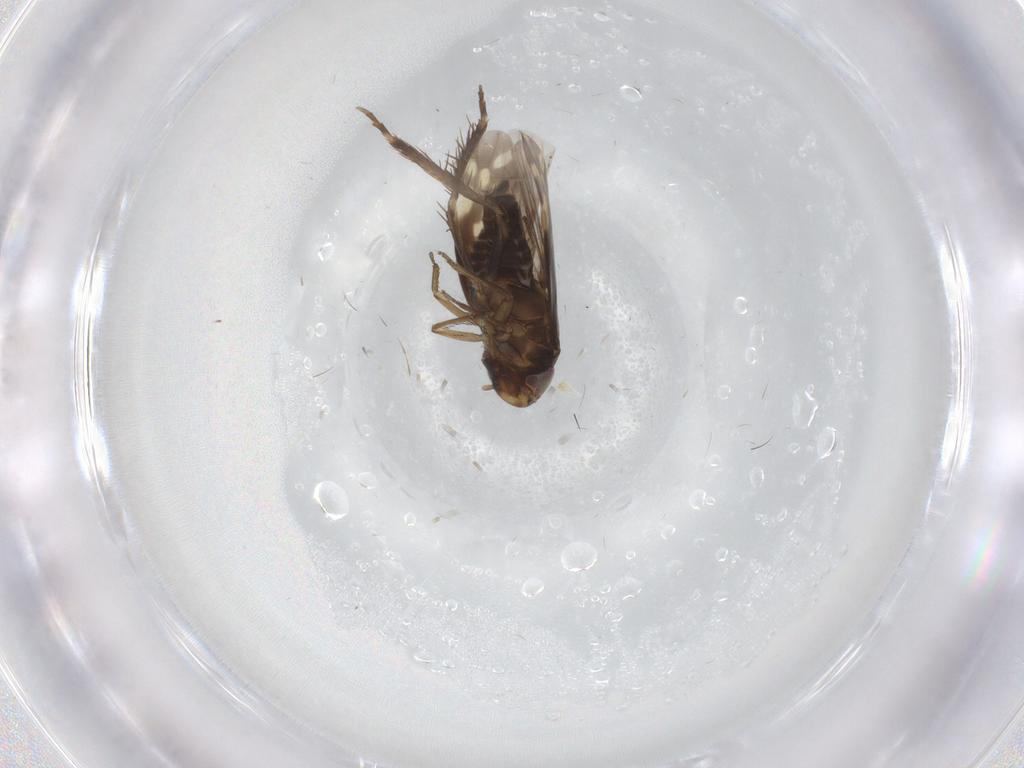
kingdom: Animalia
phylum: Arthropoda
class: Insecta
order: Hemiptera
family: Cicadellidae
